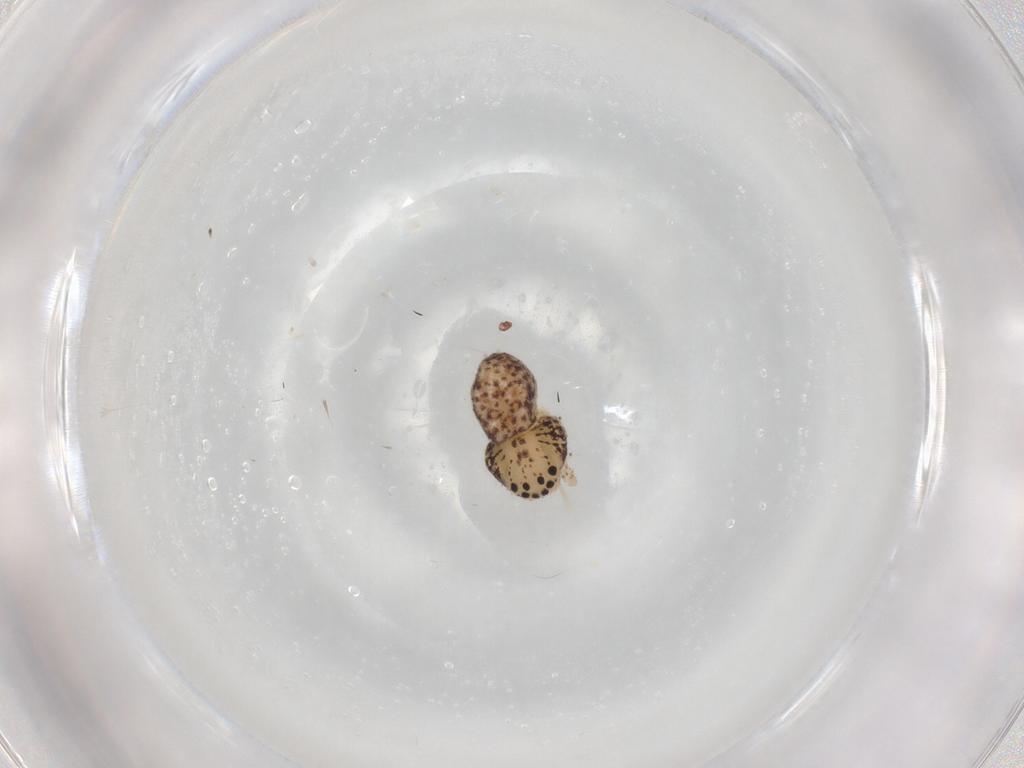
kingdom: Animalia
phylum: Arthropoda
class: Arachnida
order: Araneae
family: Philodromidae
